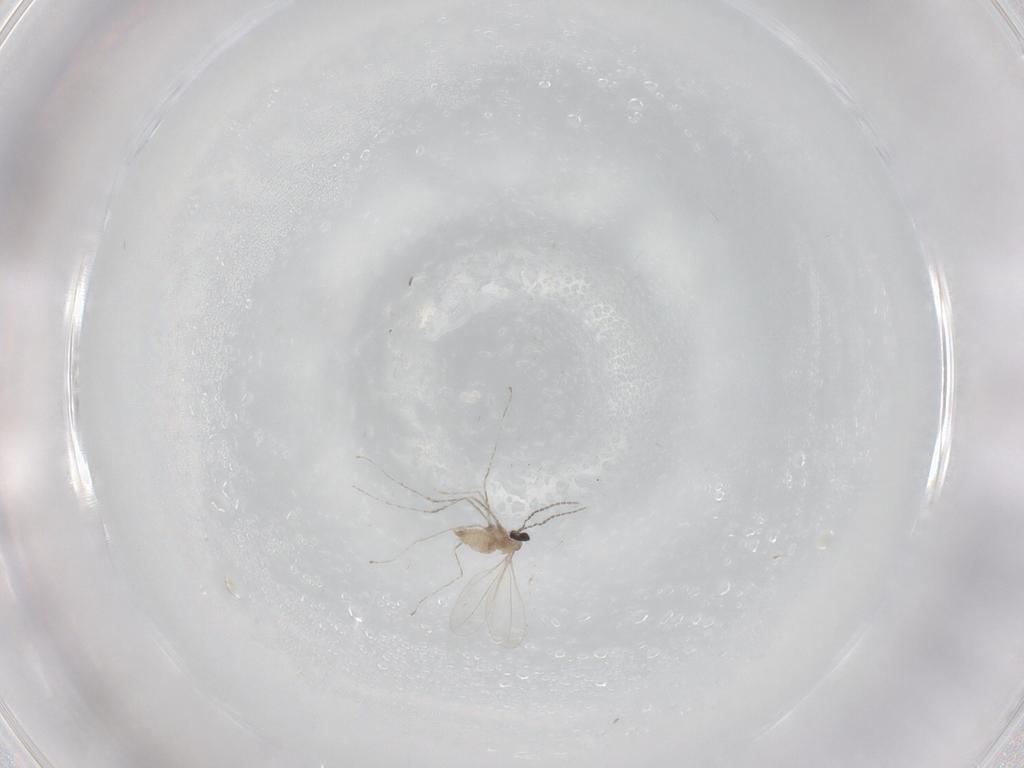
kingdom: Animalia
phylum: Arthropoda
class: Insecta
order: Diptera
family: Cecidomyiidae
